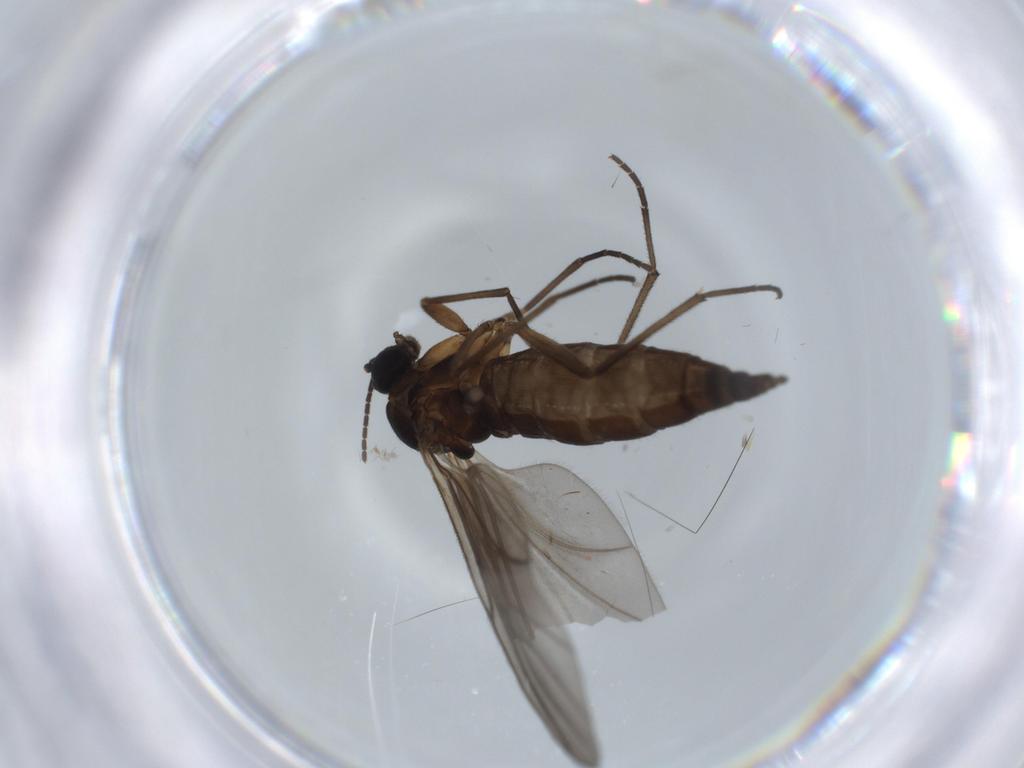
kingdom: Animalia
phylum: Arthropoda
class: Insecta
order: Diptera
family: Sciaridae
